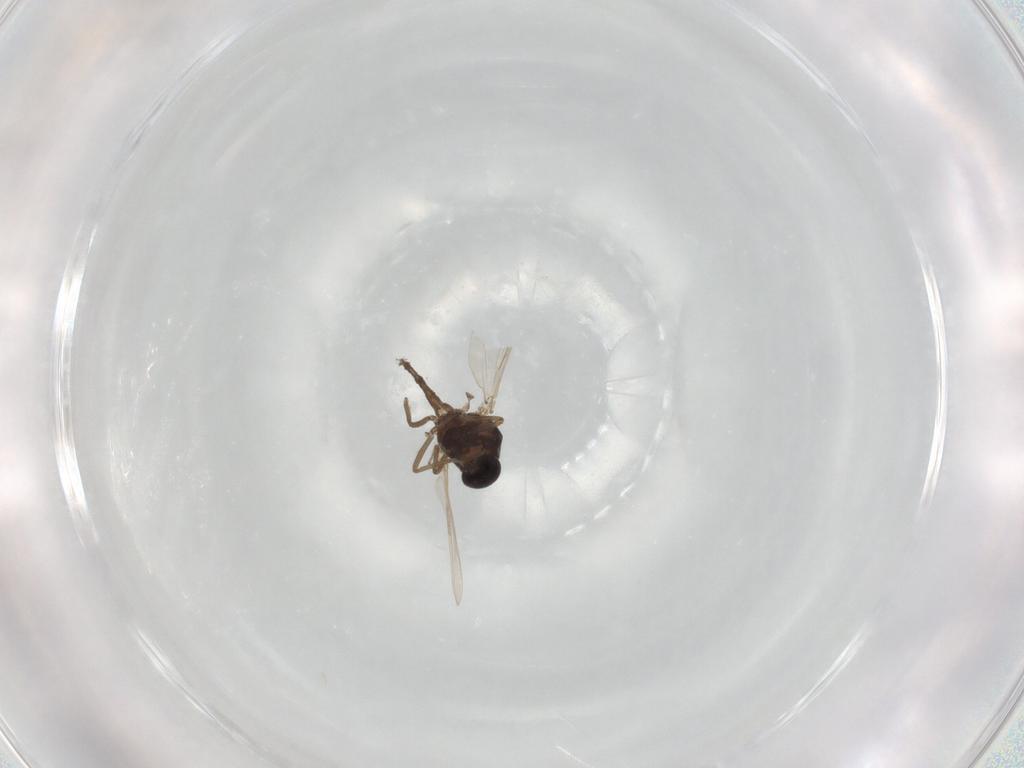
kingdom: Animalia
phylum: Arthropoda
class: Insecta
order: Diptera
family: Ceratopogonidae
